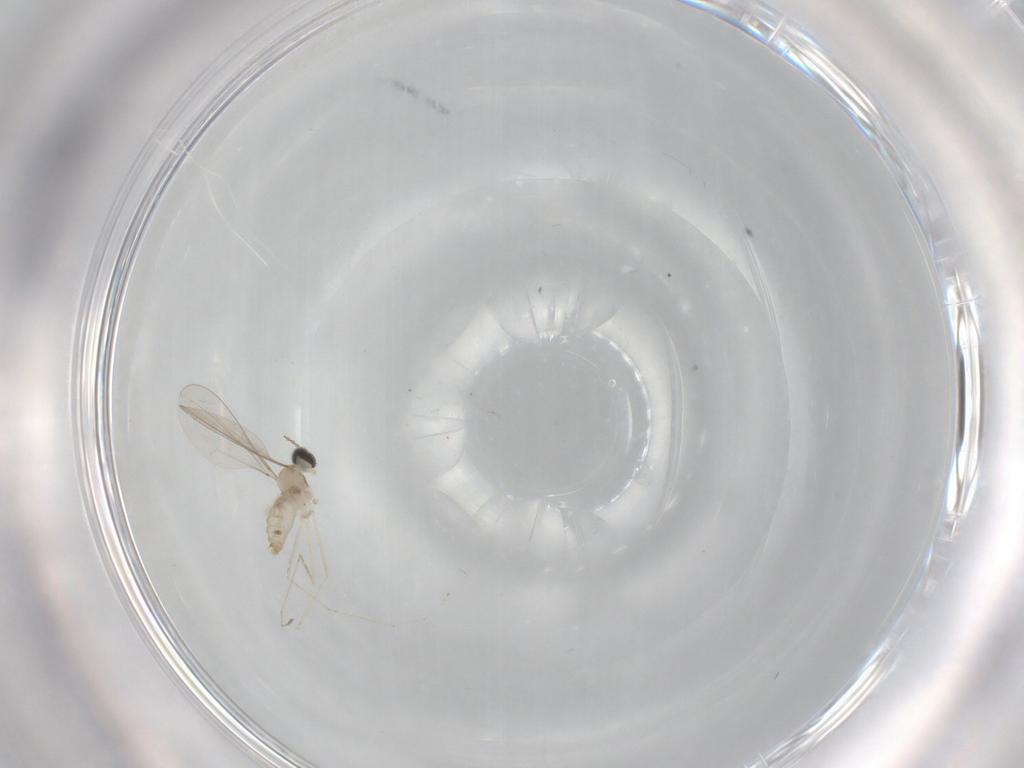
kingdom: Animalia
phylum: Arthropoda
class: Insecta
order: Diptera
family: Cecidomyiidae
